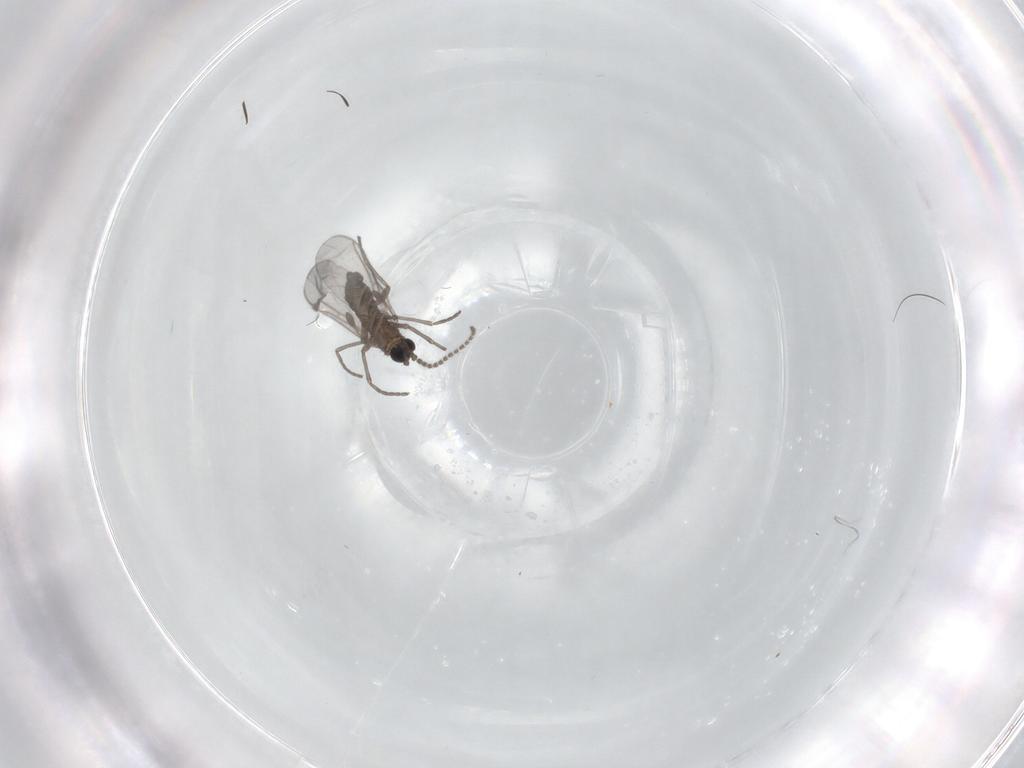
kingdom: Animalia
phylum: Arthropoda
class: Insecta
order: Diptera
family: Sciaridae
